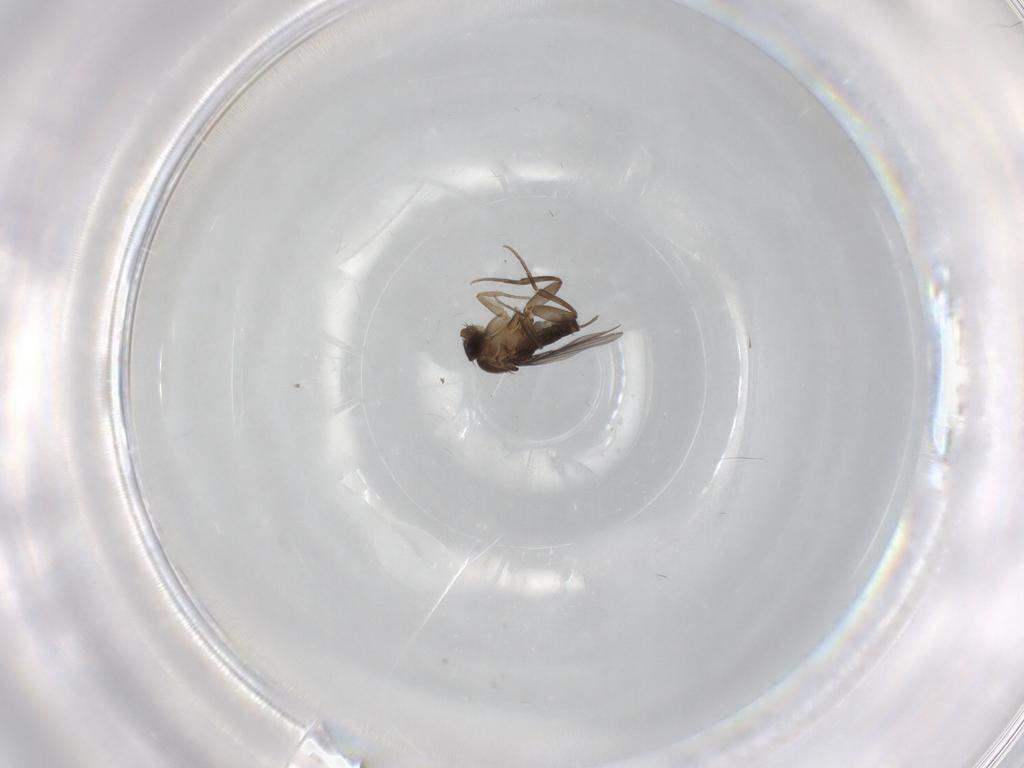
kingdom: Animalia
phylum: Arthropoda
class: Insecta
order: Diptera
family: Phoridae
